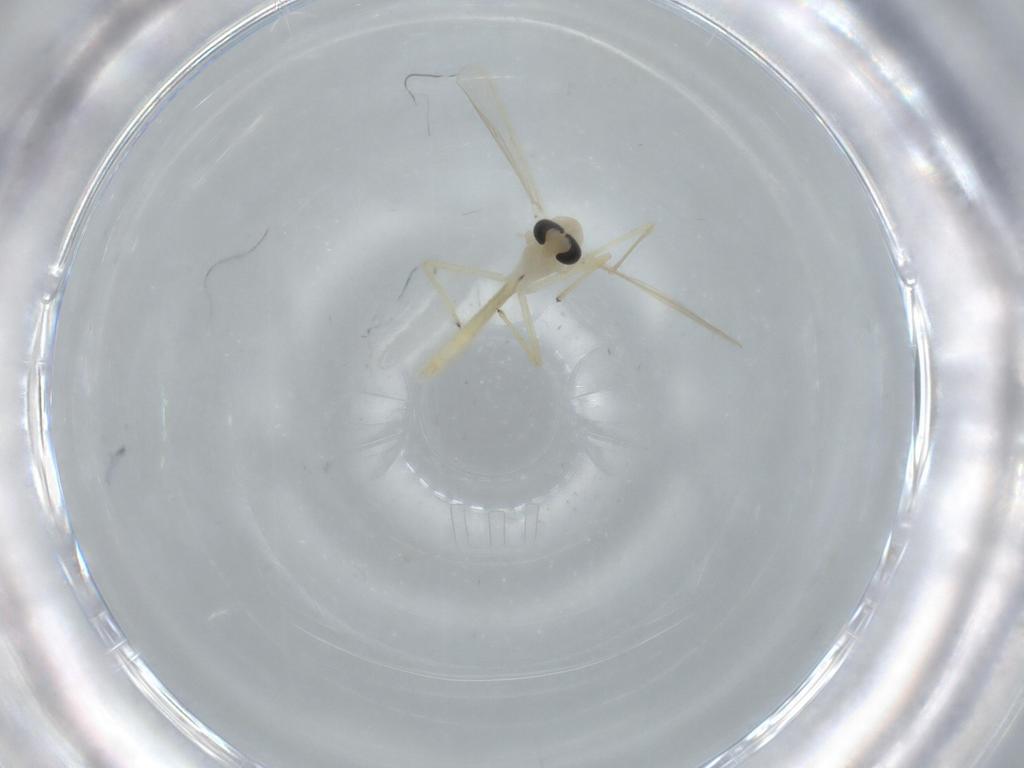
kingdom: Animalia
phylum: Arthropoda
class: Insecta
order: Diptera
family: Chironomidae
